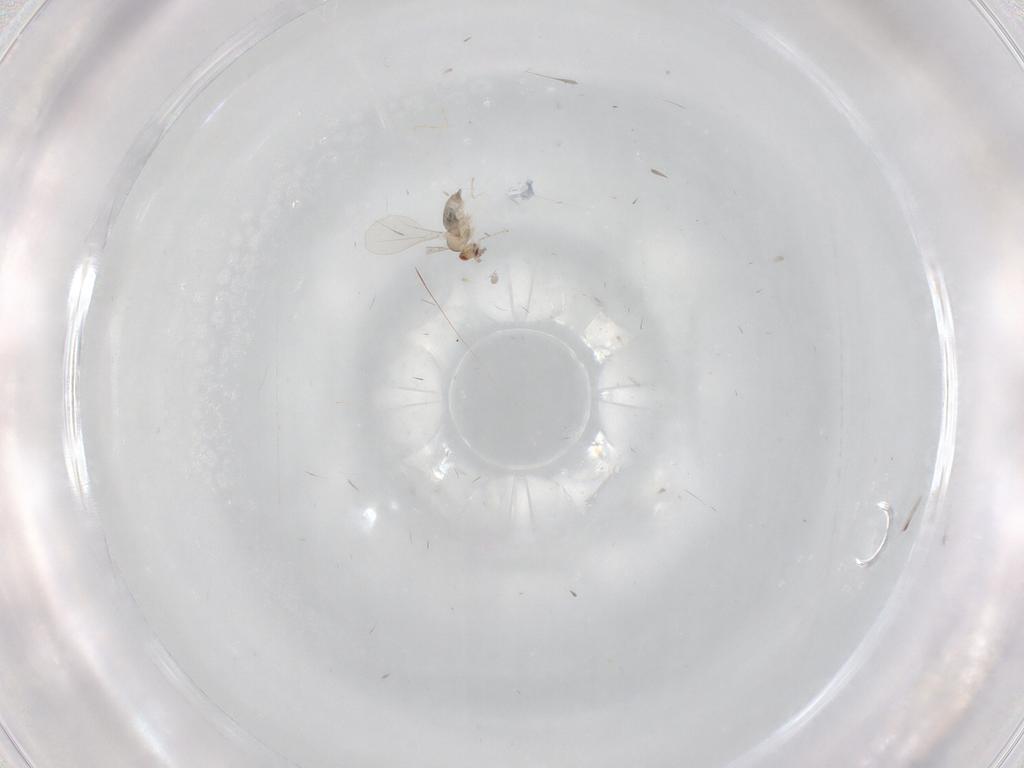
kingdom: Animalia
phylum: Arthropoda
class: Insecta
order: Diptera
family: Cecidomyiidae
